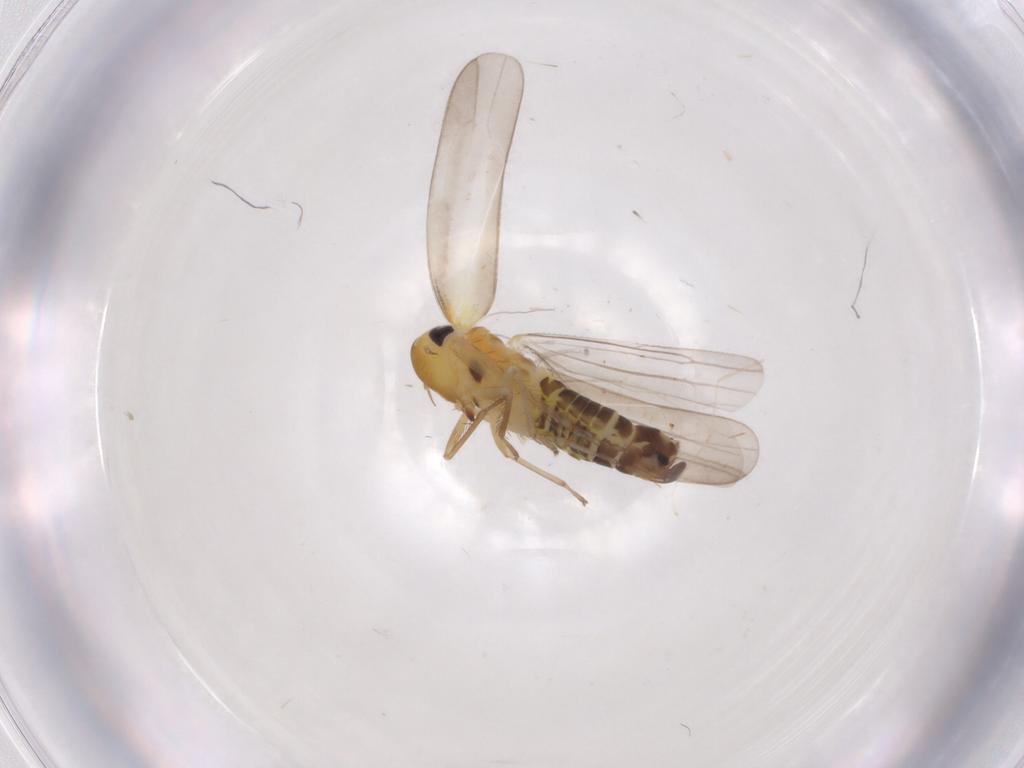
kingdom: Animalia
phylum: Arthropoda
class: Insecta
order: Hemiptera
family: Cicadellidae
